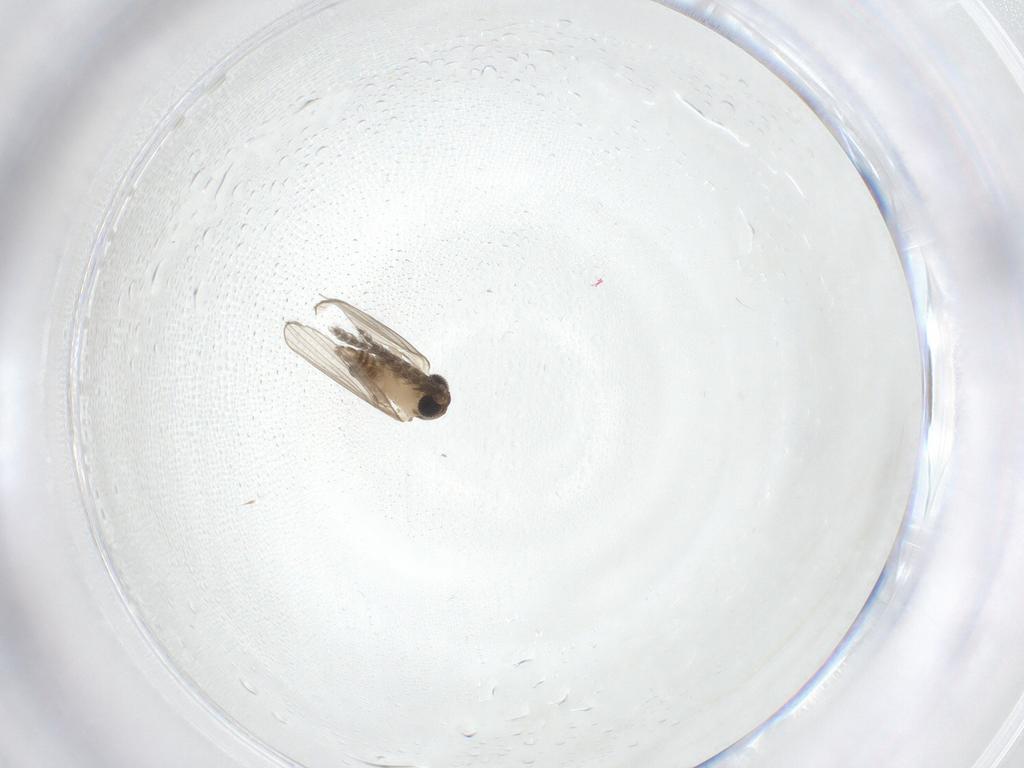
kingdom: Animalia
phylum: Arthropoda
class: Insecta
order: Diptera
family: Psychodidae
